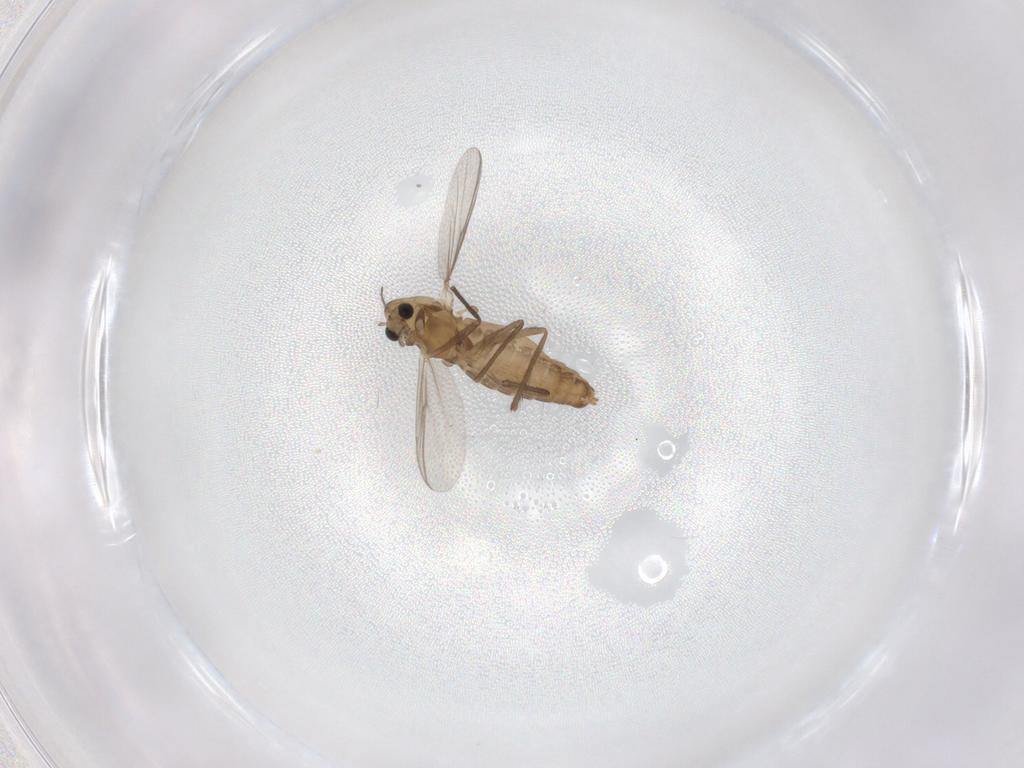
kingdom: Animalia
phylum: Arthropoda
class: Insecta
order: Diptera
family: Chironomidae
